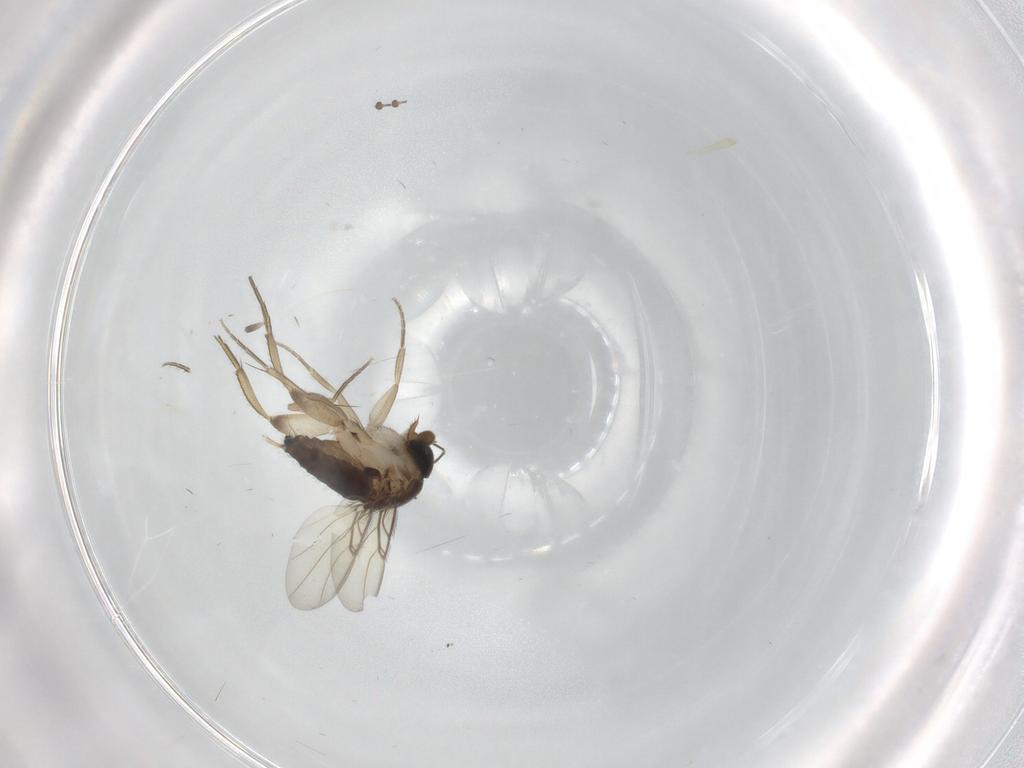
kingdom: Animalia
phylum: Arthropoda
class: Insecta
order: Diptera
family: Phoridae
